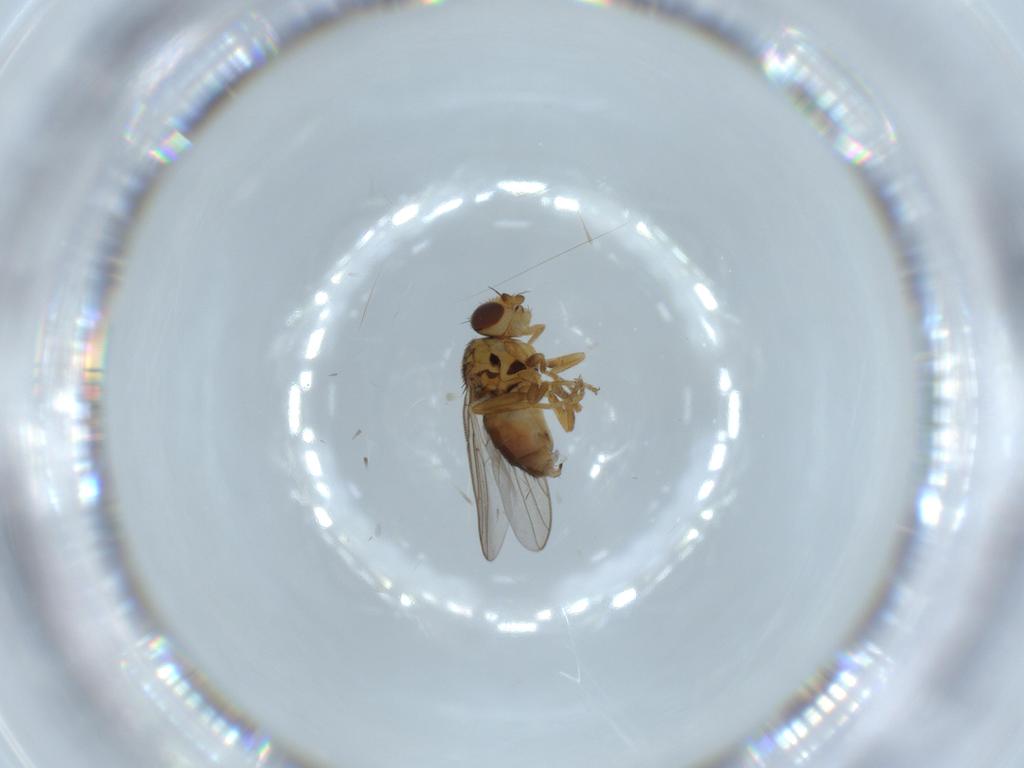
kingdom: Animalia
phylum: Arthropoda
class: Insecta
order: Diptera
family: Chloropidae
